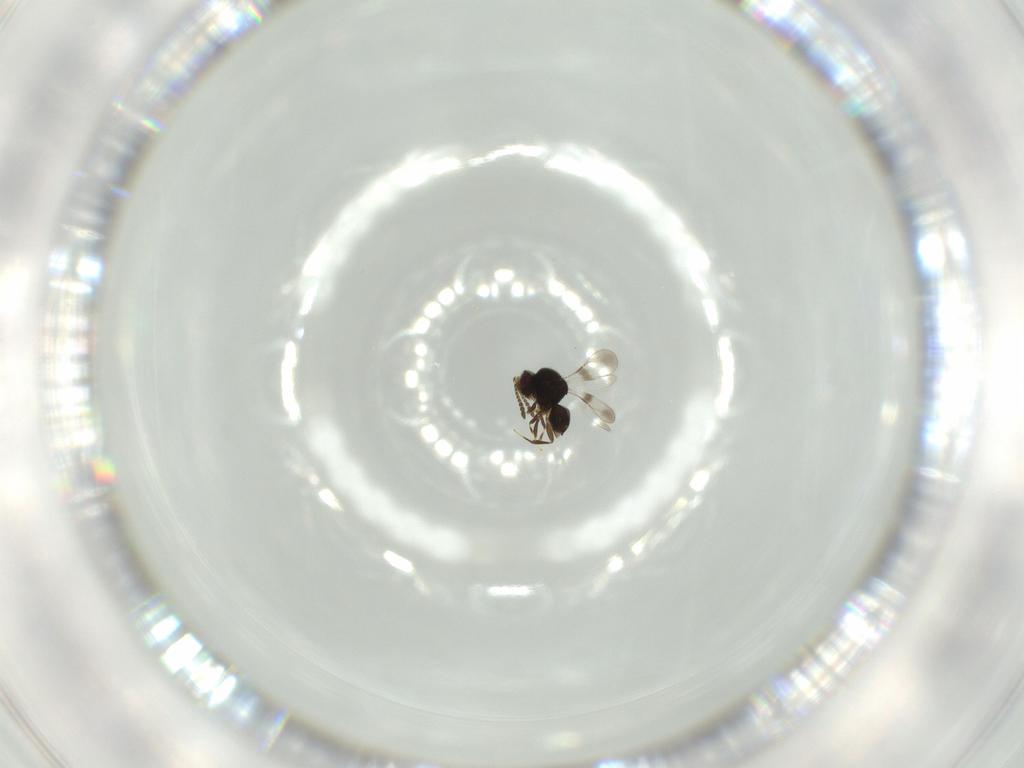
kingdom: Animalia
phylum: Arthropoda
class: Insecta
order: Hymenoptera
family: Ceraphronidae
